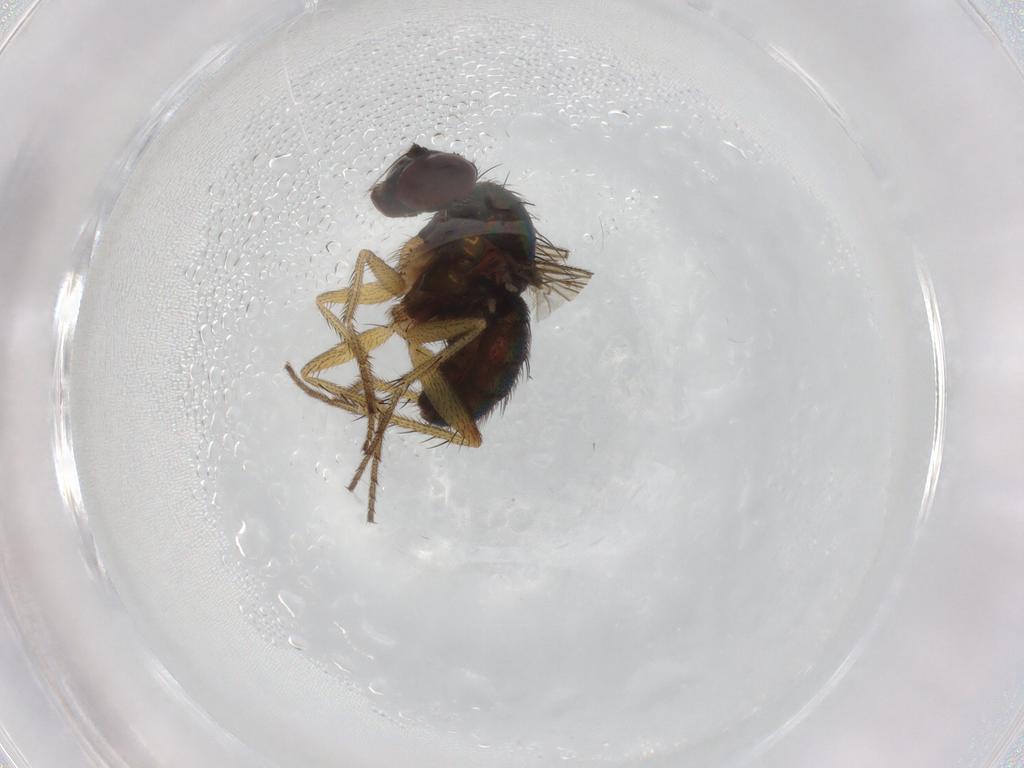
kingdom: Animalia
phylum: Arthropoda
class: Insecta
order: Diptera
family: Dolichopodidae
